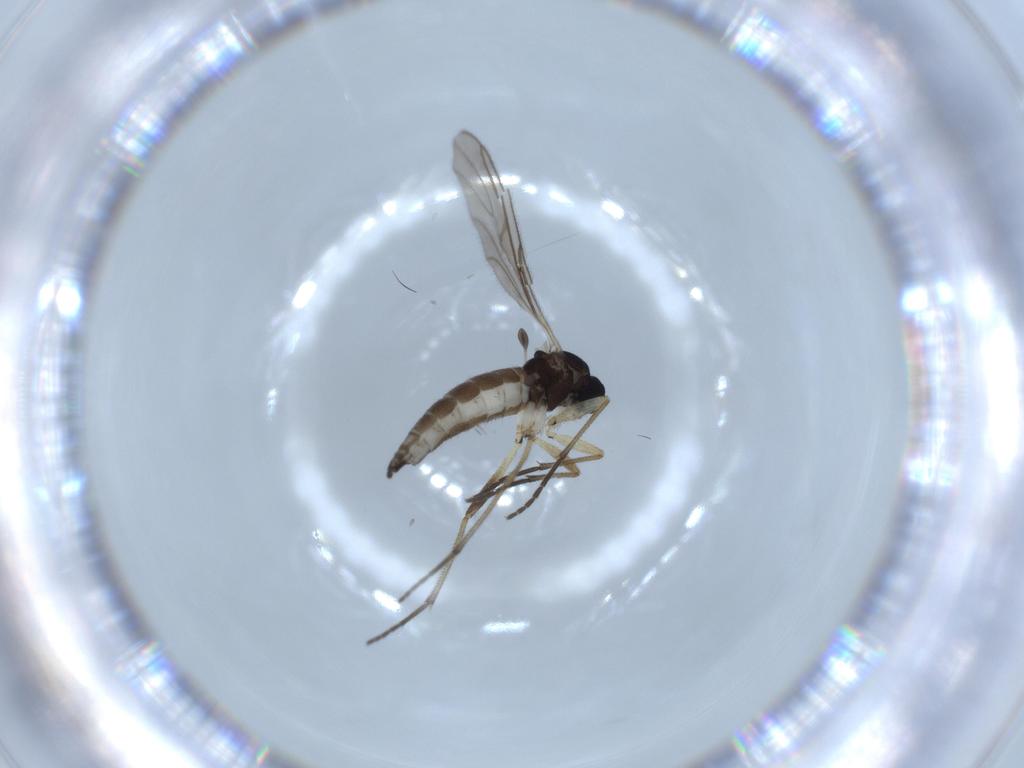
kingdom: Animalia
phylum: Arthropoda
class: Insecta
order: Diptera
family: Sciaridae
